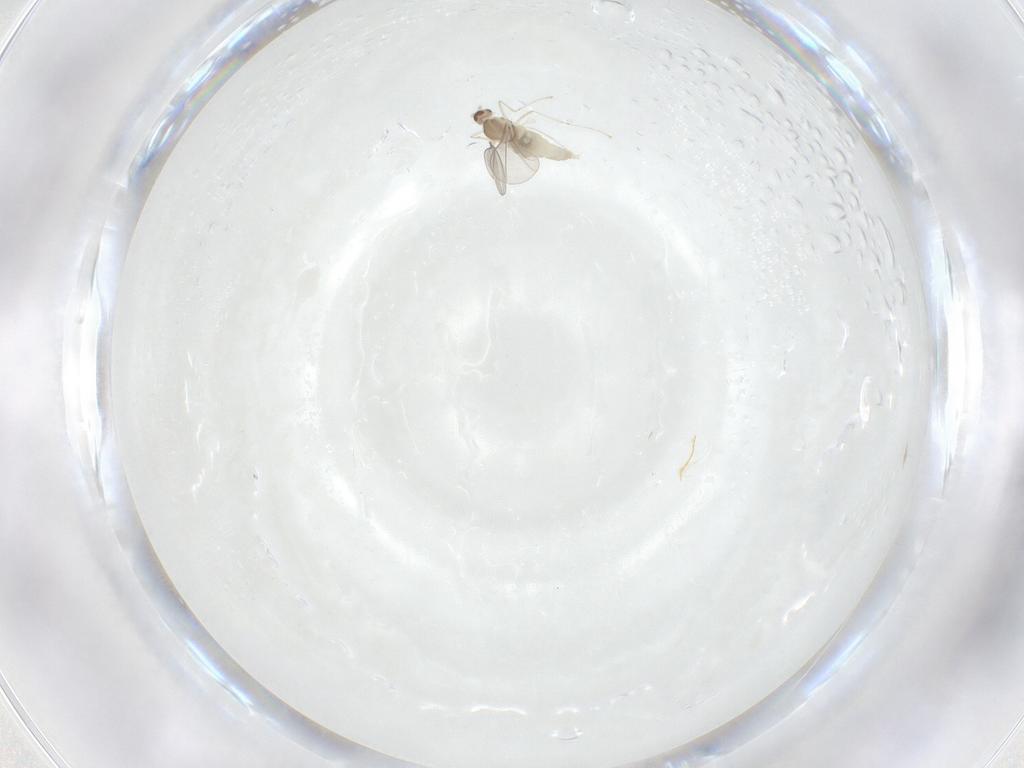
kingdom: Animalia
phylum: Arthropoda
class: Insecta
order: Diptera
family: Cecidomyiidae
